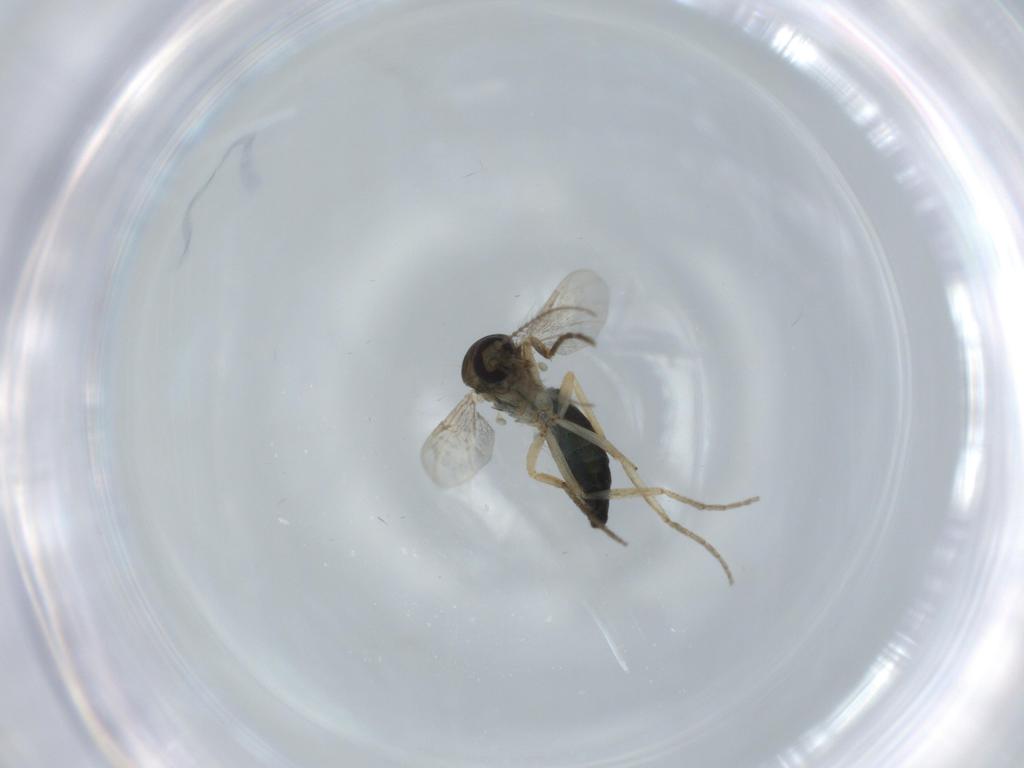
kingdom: Animalia
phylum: Arthropoda
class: Insecta
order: Diptera
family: Ceratopogonidae
